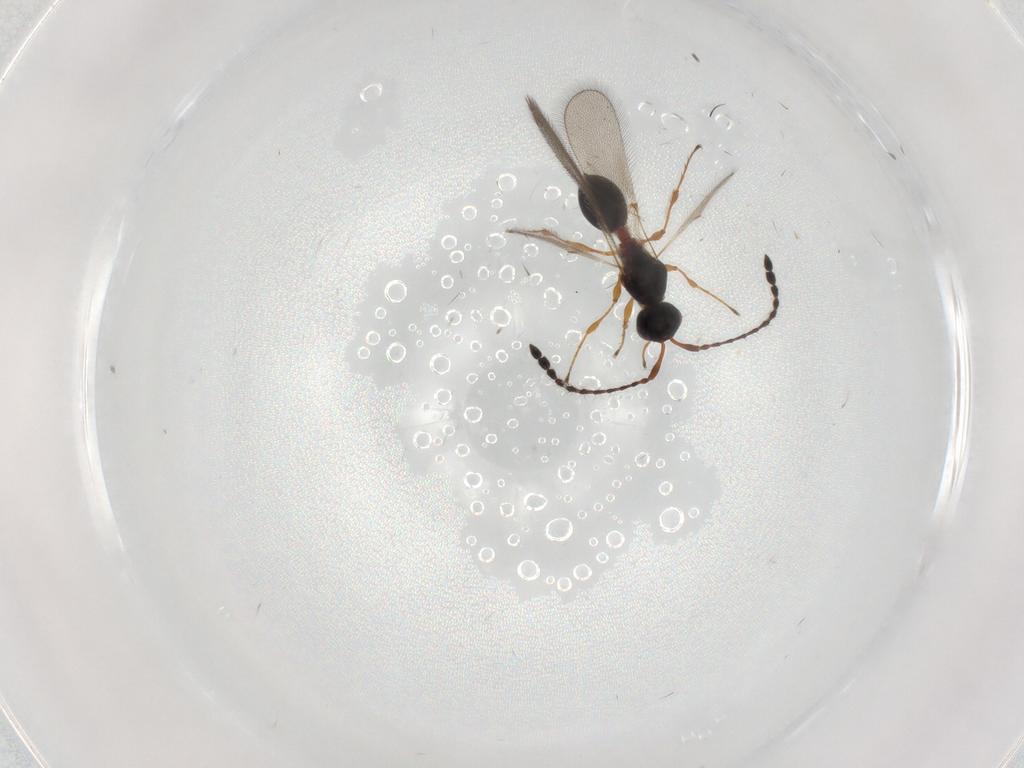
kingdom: Animalia
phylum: Arthropoda
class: Insecta
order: Hymenoptera
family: Diapriidae
